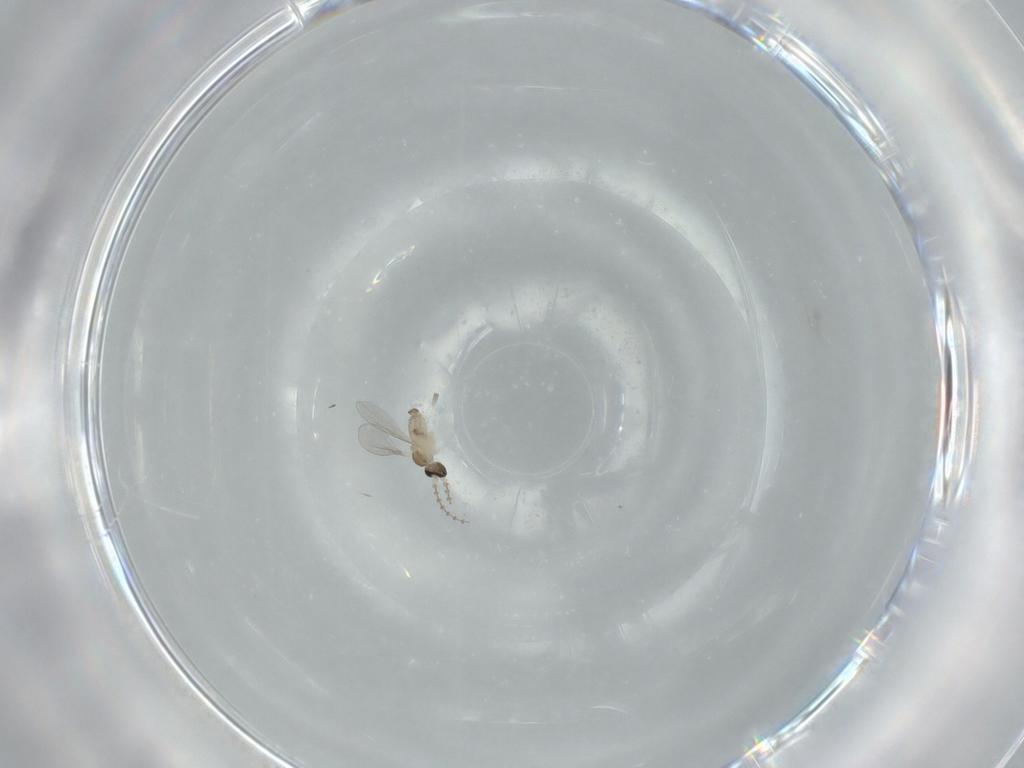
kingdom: Animalia
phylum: Arthropoda
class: Insecta
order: Diptera
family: Cecidomyiidae
